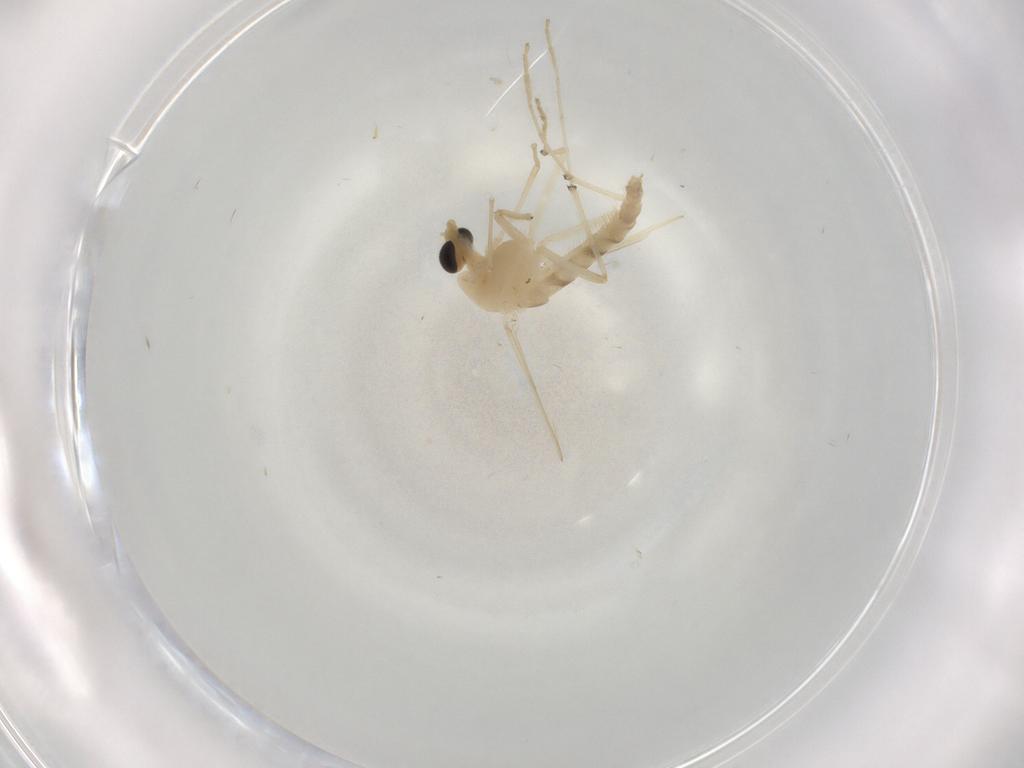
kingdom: Animalia
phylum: Arthropoda
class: Insecta
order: Diptera
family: Chironomidae
